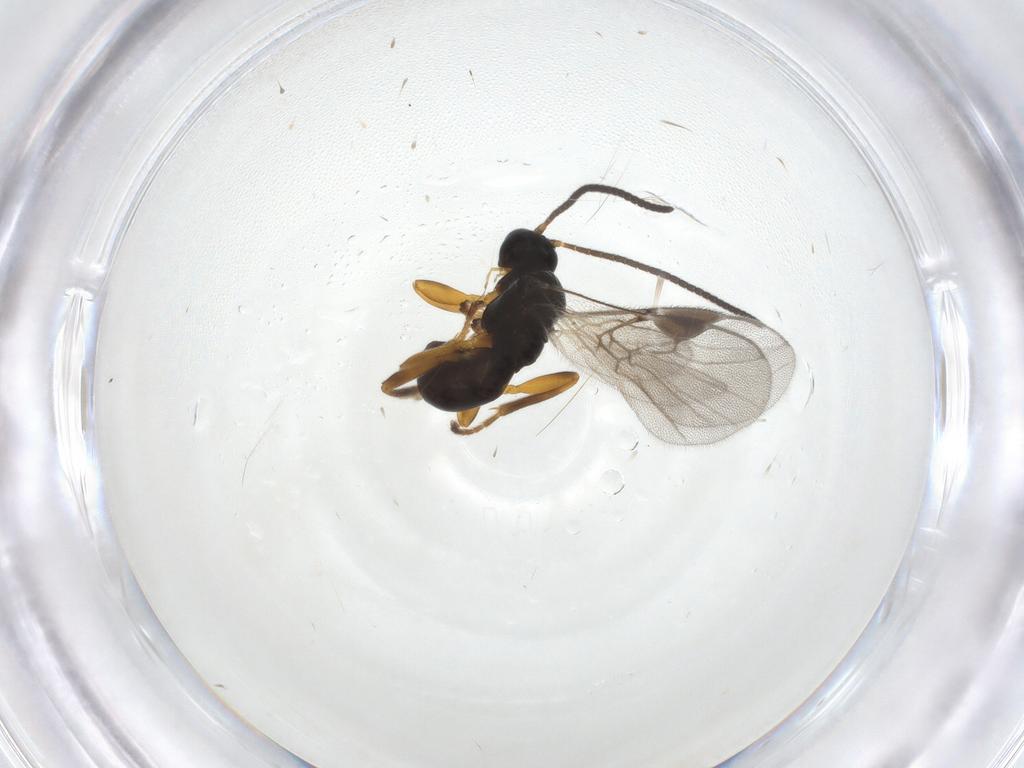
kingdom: Animalia
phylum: Arthropoda
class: Insecta
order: Hymenoptera
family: Braconidae
